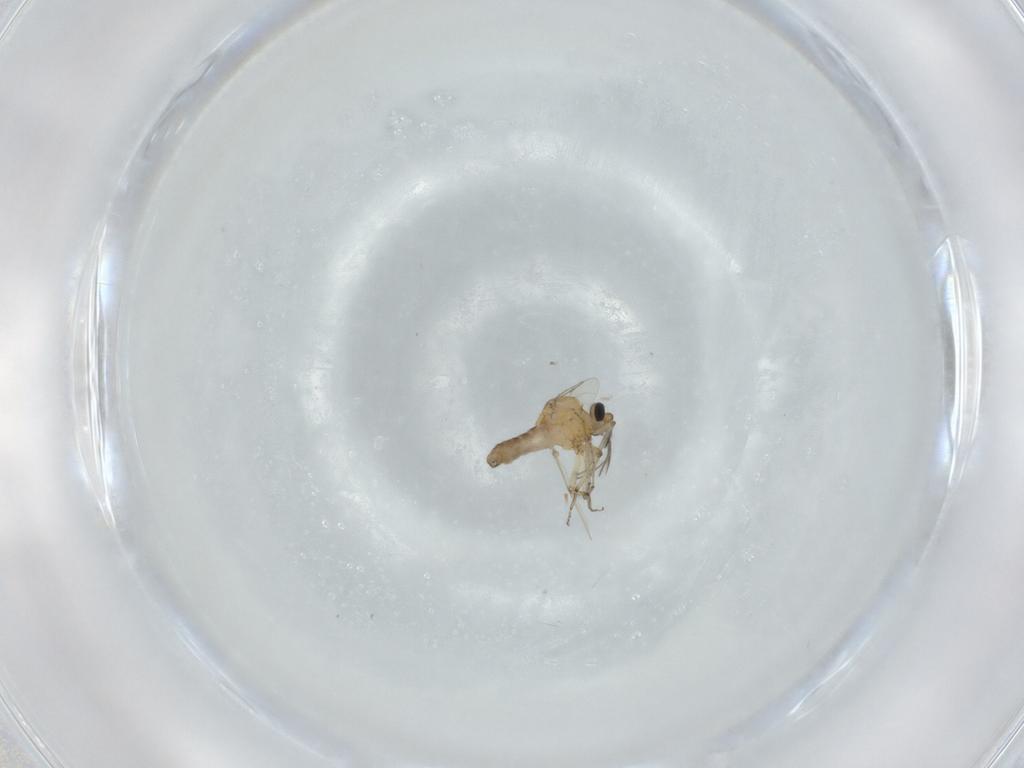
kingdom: Animalia
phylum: Arthropoda
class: Insecta
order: Diptera
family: Ceratopogonidae
